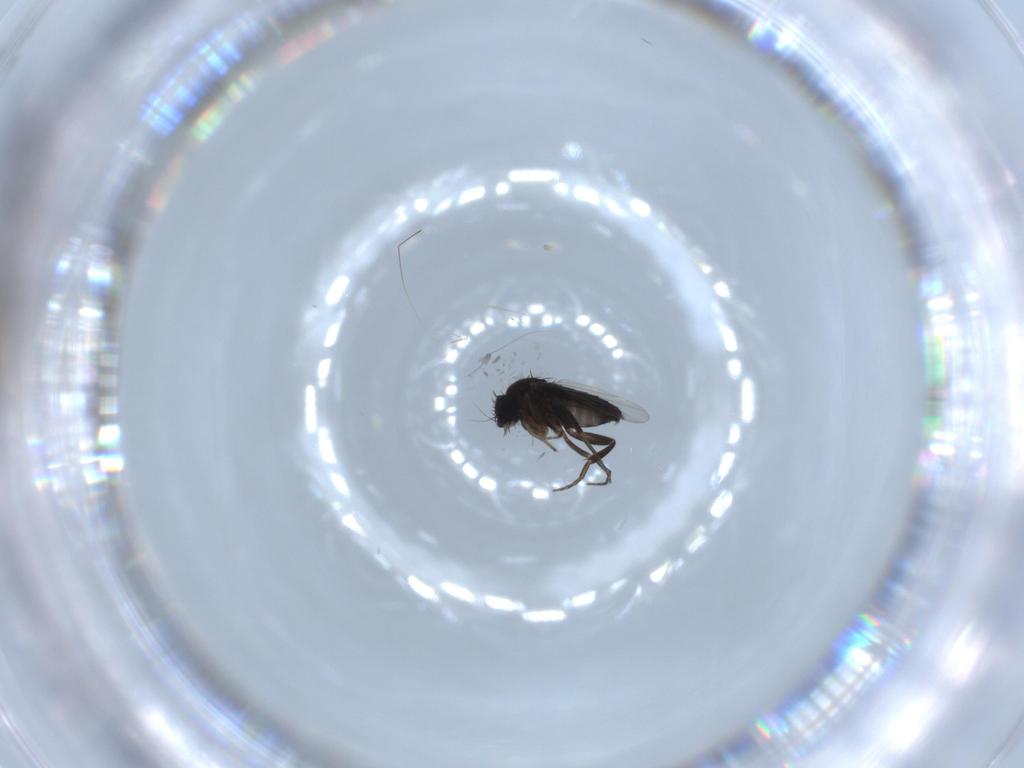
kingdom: Animalia
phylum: Arthropoda
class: Insecta
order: Diptera
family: Phoridae
